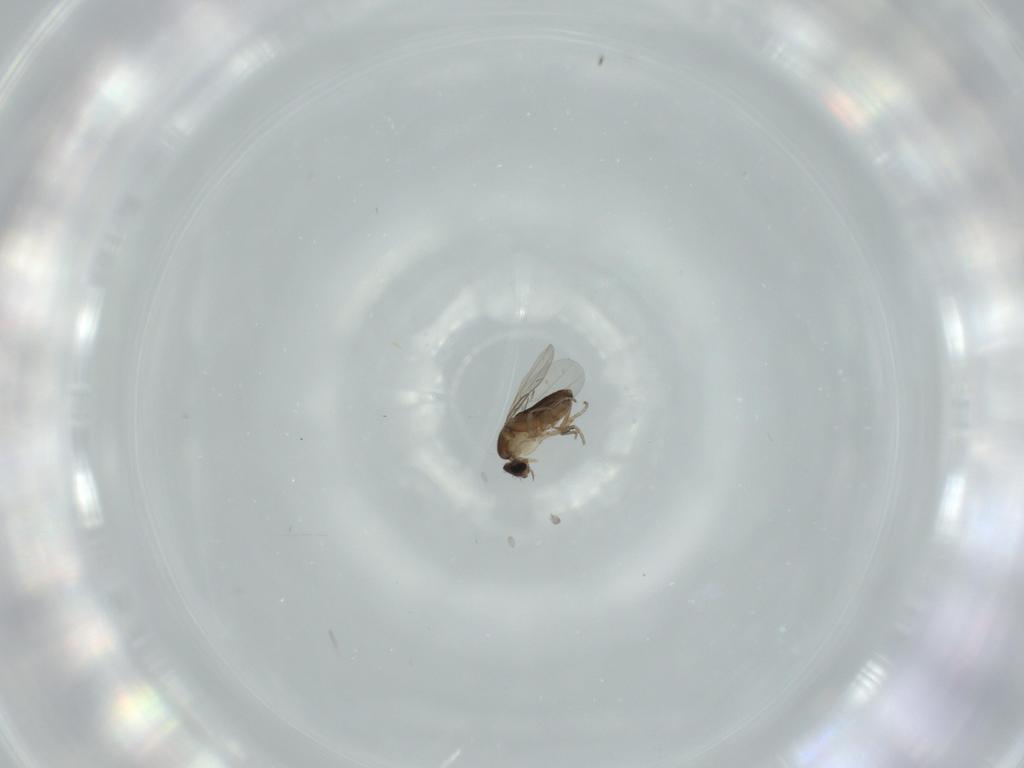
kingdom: Animalia
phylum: Arthropoda
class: Insecta
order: Diptera
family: Phoridae
